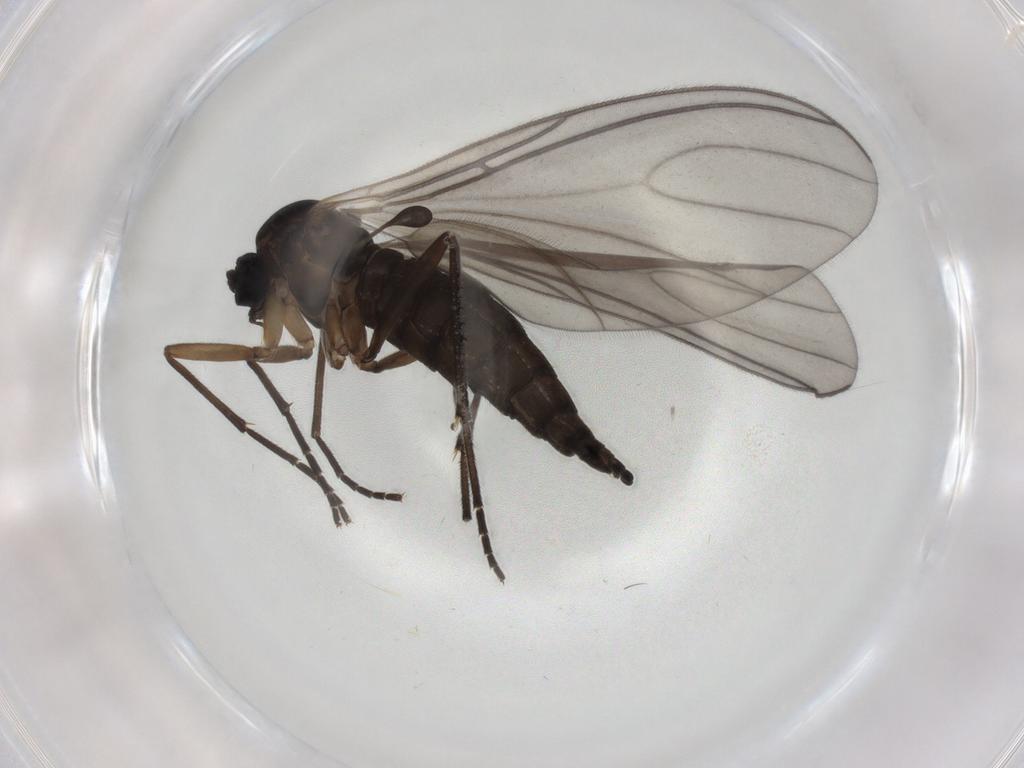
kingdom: Animalia
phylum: Arthropoda
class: Insecta
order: Diptera
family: Sciaridae
